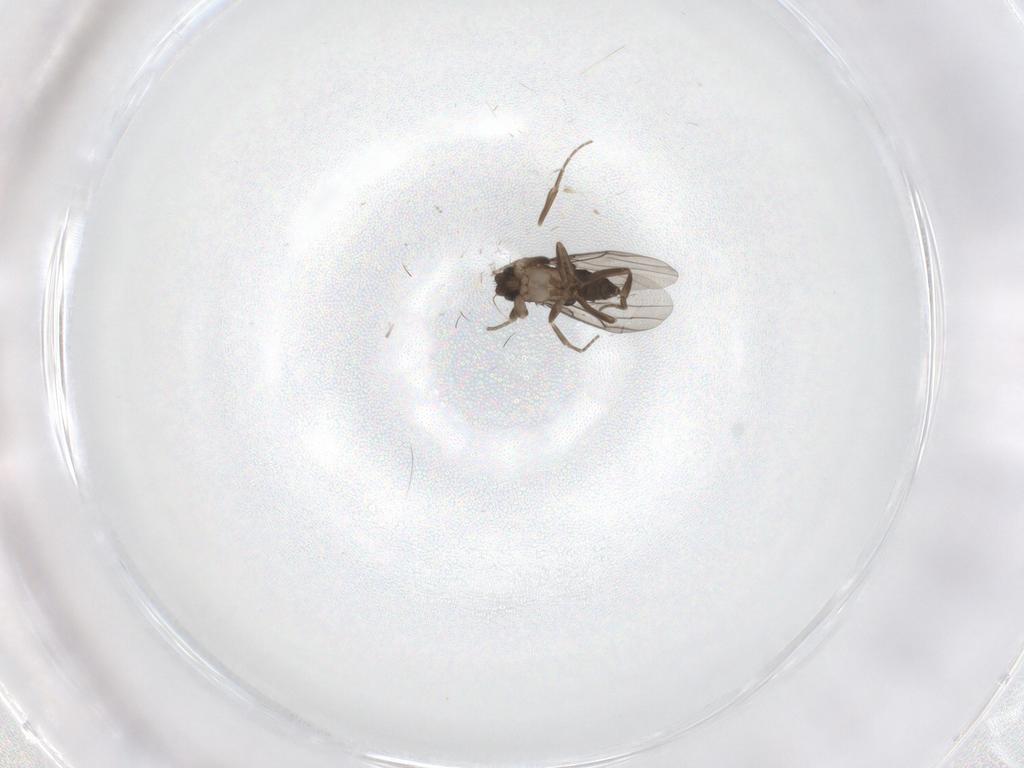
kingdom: Animalia
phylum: Arthropoda
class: Insecta
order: Diptera
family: Phoridae
